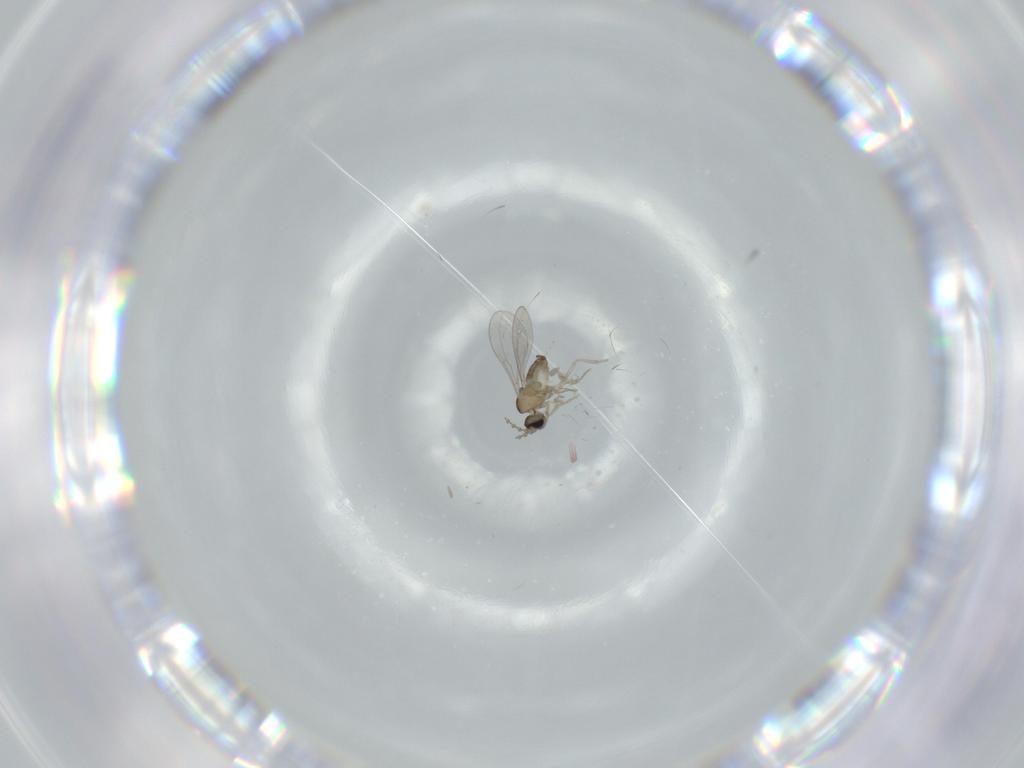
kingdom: Animalia
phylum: Arthropoda
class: Insecta
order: Diptera
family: Cecidomyiidae
